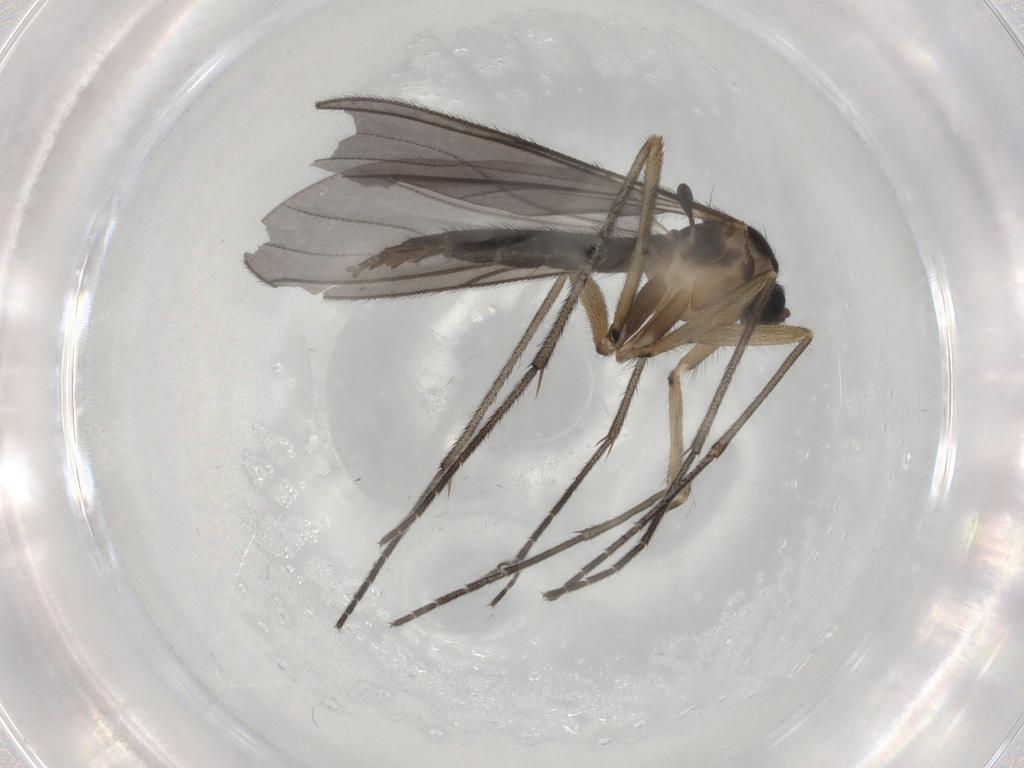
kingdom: Animalia
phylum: Arthropoda
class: Insecta
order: Diptera
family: Sciaridae
